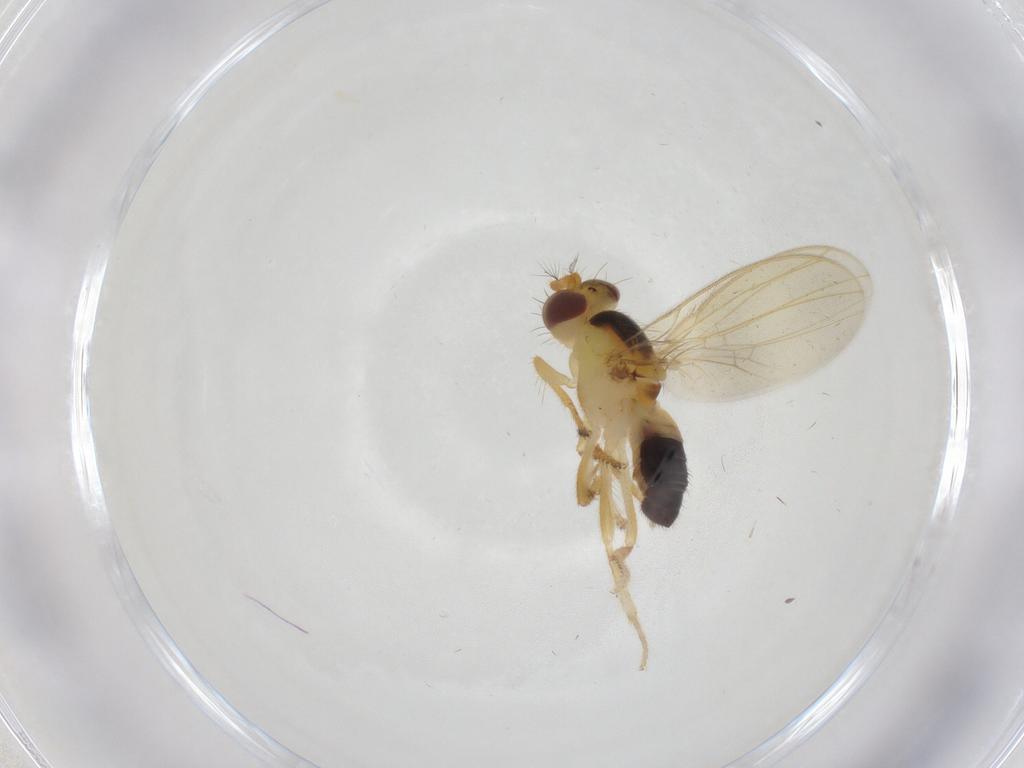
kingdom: Animalia
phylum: Arthropoda
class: Insecta
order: Diptera
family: Periscelididae
